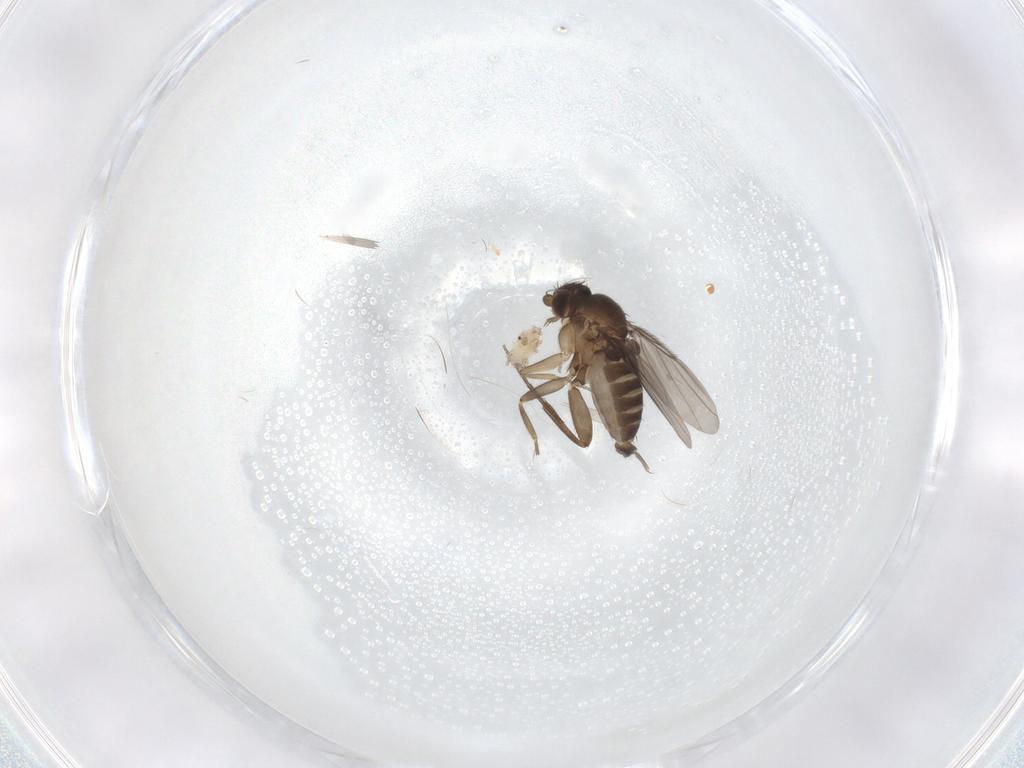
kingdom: Animalia
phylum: Arthropoda
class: Insecta
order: Diptera
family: Phoridae
